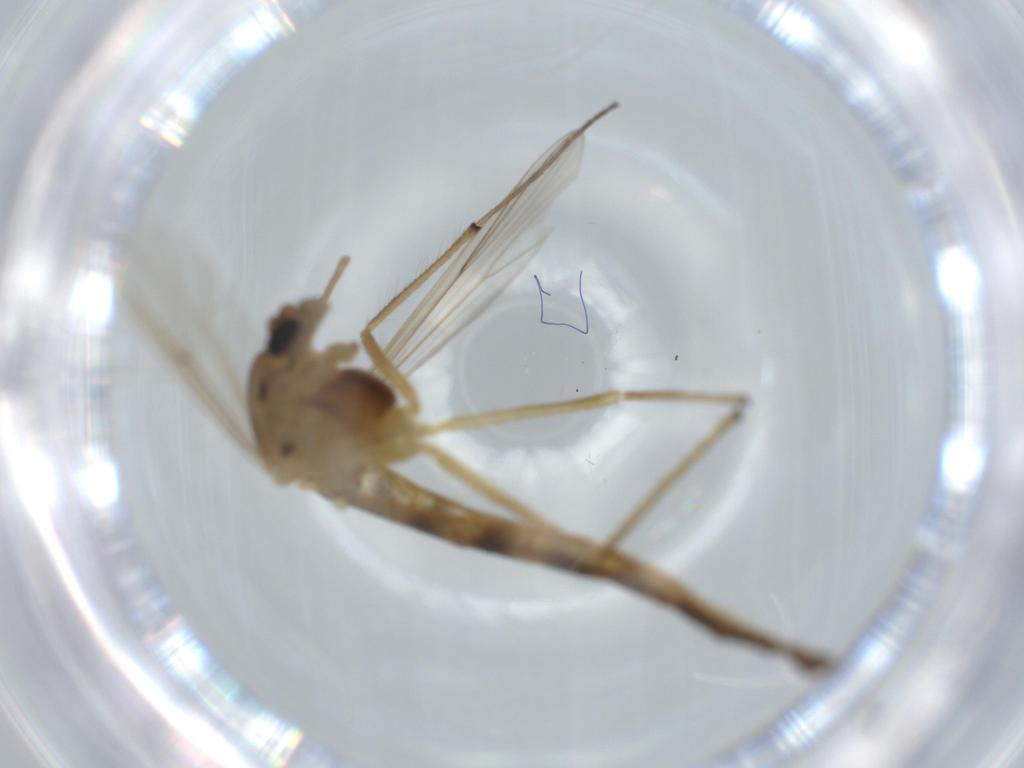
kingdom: Animalia
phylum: Arthropoda
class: Insecta
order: Diptera
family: Chironomidae
